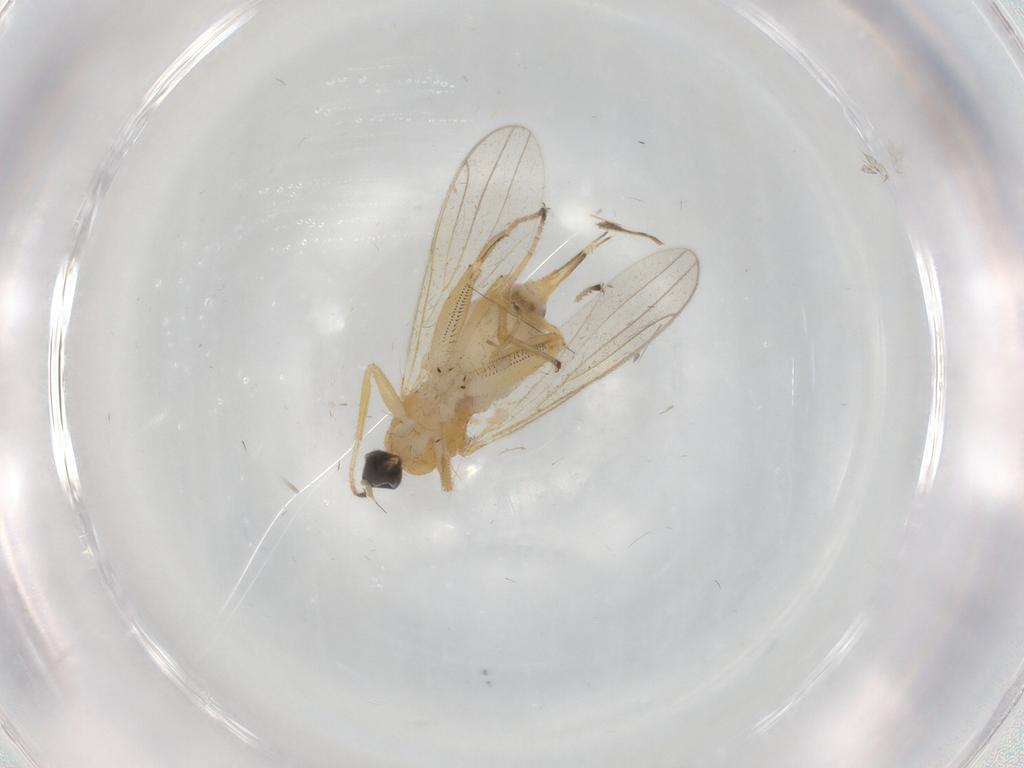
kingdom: Animalia
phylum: Arthropoda
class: Insecta
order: Diptera
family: Hybotidae
